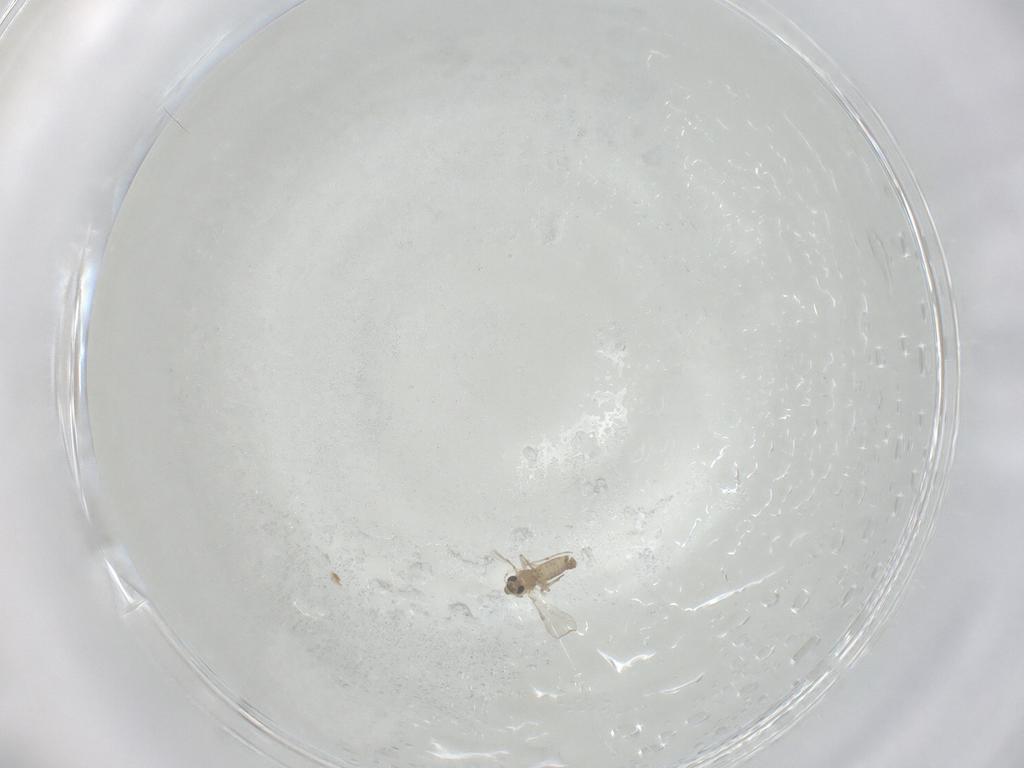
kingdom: Animalia
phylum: Arthropoda
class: Insecta
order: Diptera
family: Chironomidae
